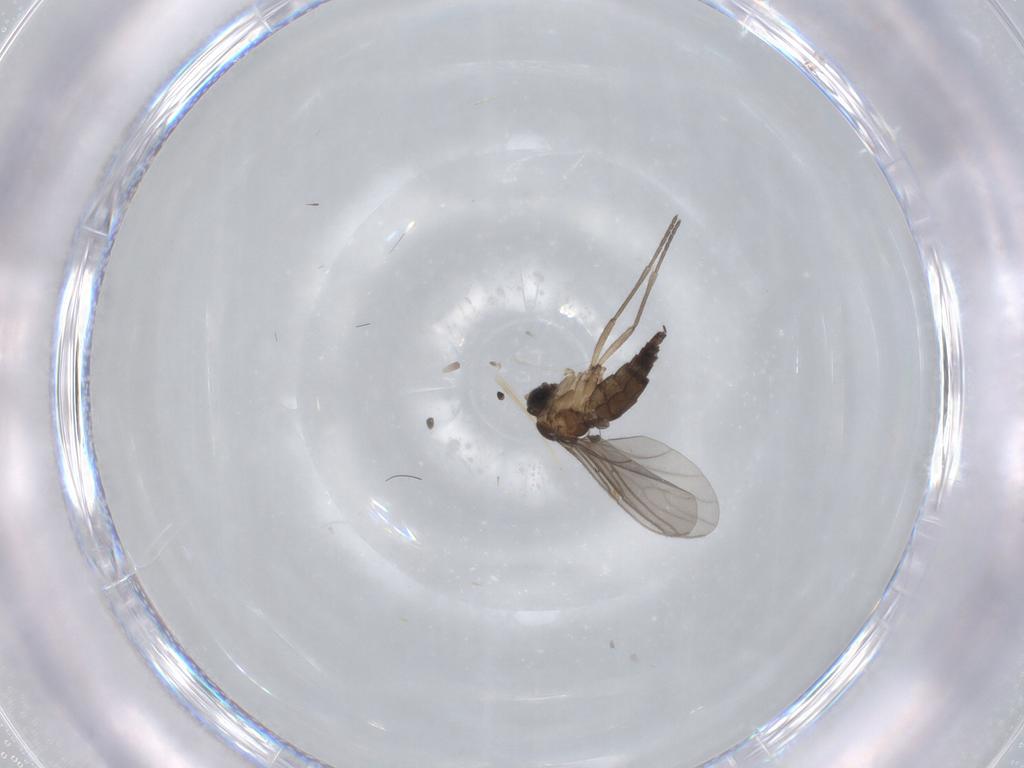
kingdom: Animalia
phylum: Arthropoda
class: Insecta
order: Diptera
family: Sciaridae
